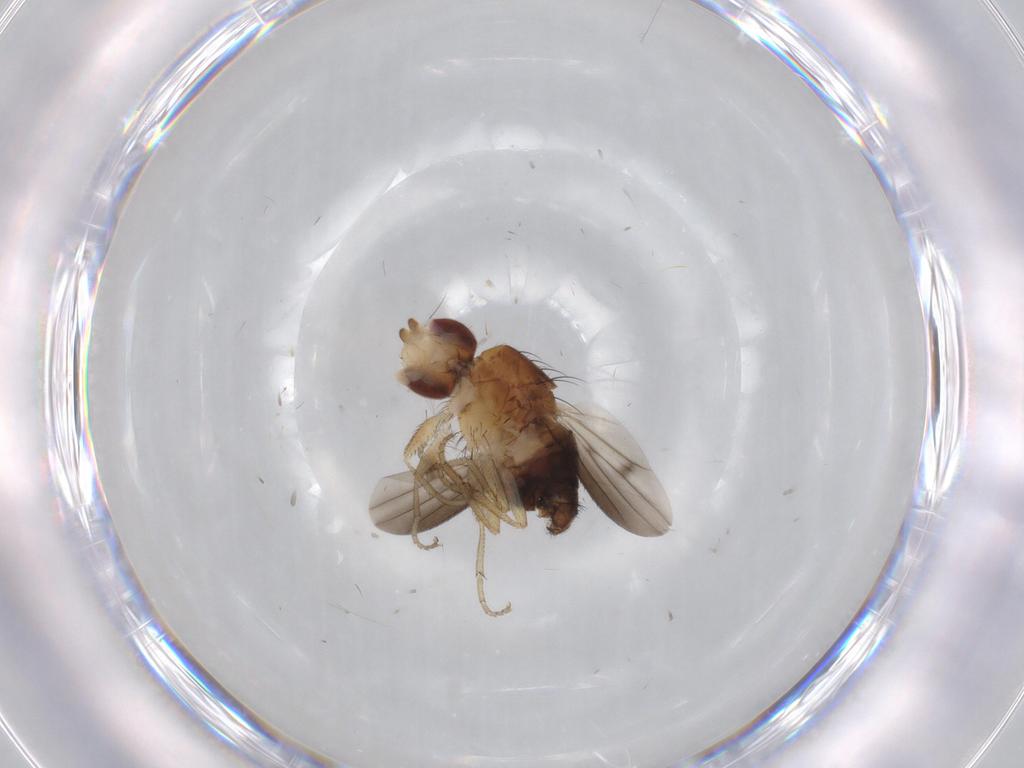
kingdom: Animalia
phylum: Arthropoda
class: Insecta
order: Diptera
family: Heleomyzidae
